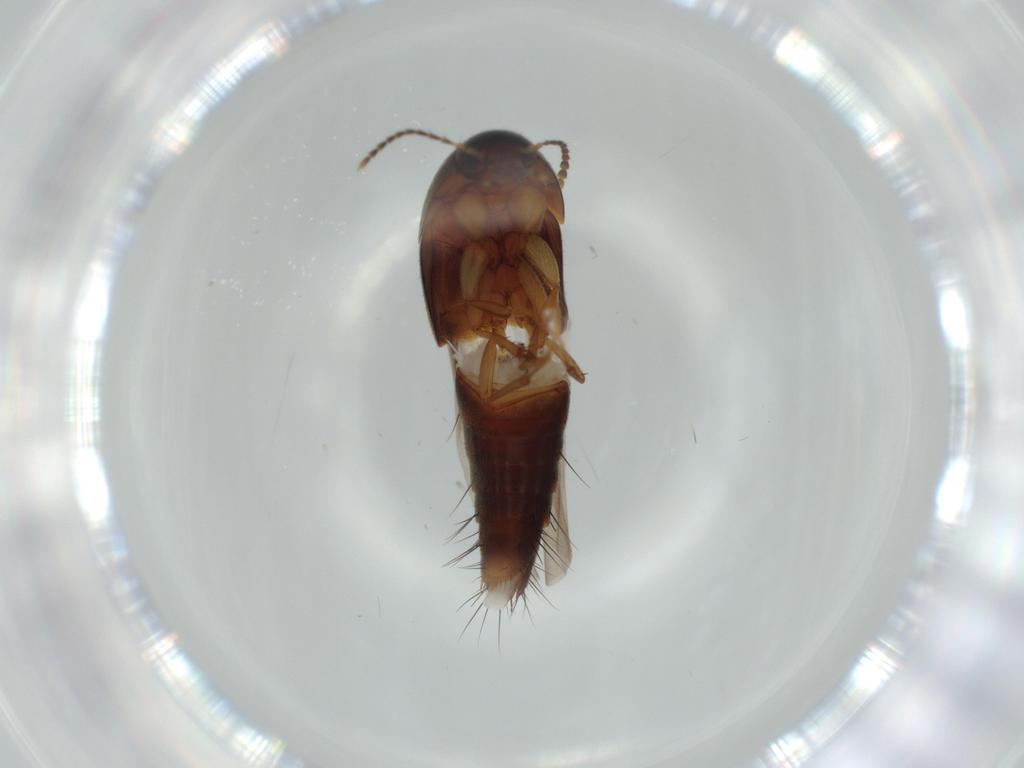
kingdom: Animalia
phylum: Arthropoda
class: Insecta
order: Coleoptera
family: Staphylinidae
